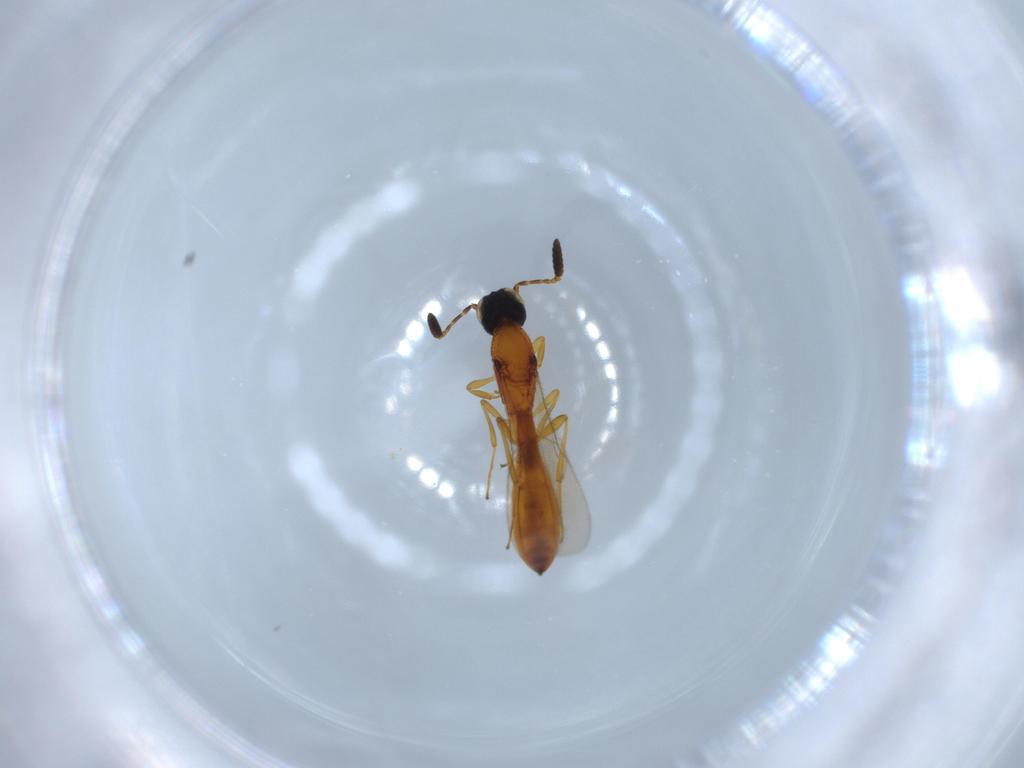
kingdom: Animalia
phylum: Arthropoda
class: Insecta
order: Hymenoptera
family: Scelionidae
